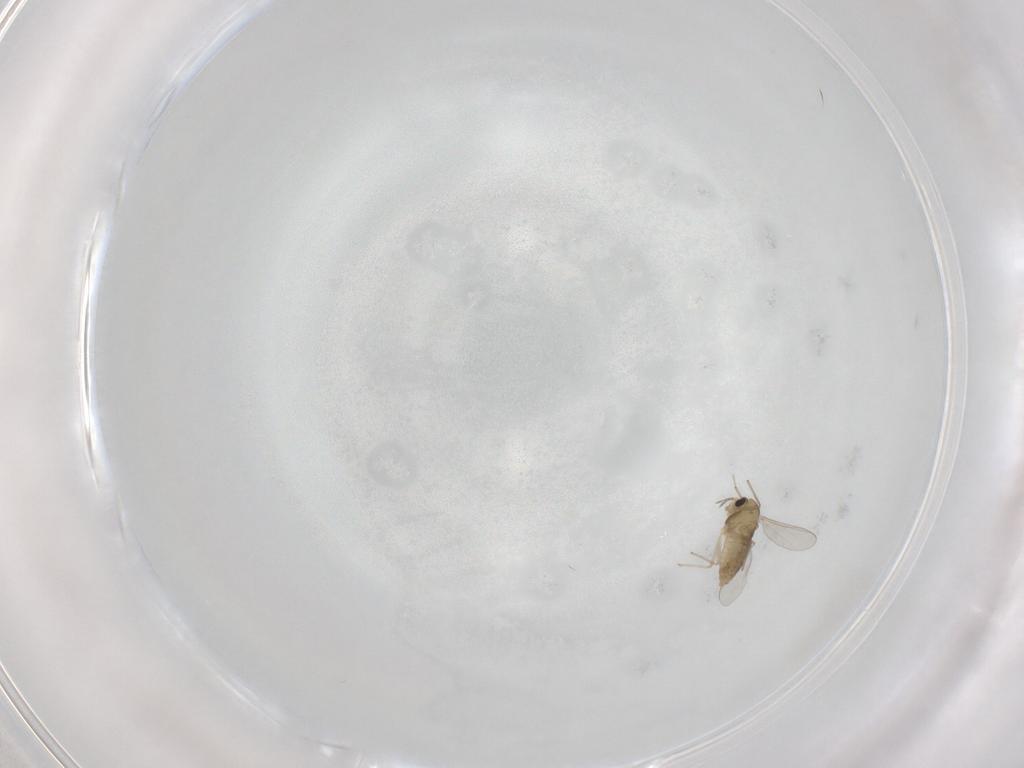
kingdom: Animalia
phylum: Arthropoda
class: Insecta
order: Diptera
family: Chironomidae
